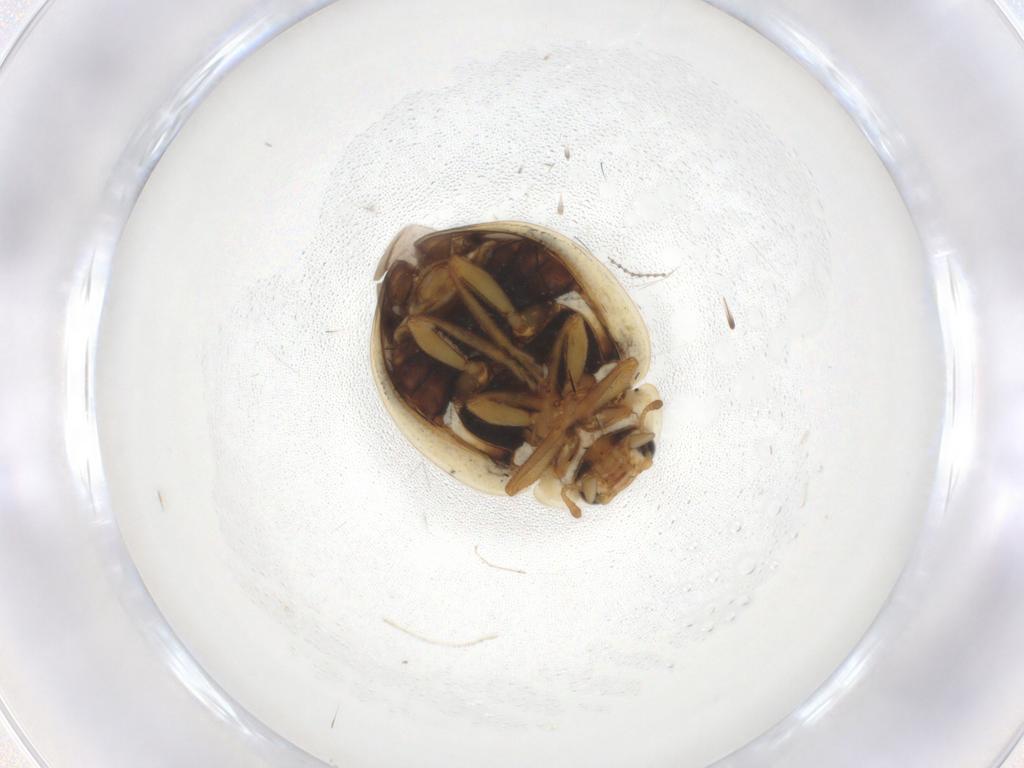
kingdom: Animalia
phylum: Arthropoda
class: Insecta
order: Coleoptera
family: Coccinellidae
